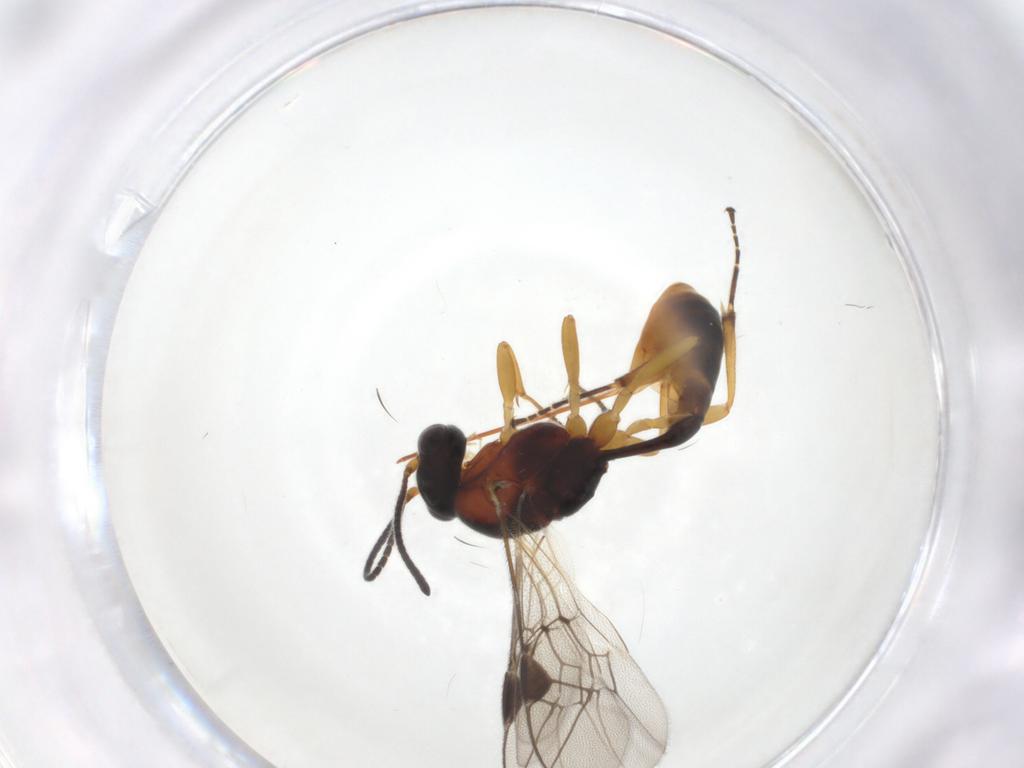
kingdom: Animalia
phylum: Arthropoda
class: Insecta
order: Hymenoptera
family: Ichneumonidae
